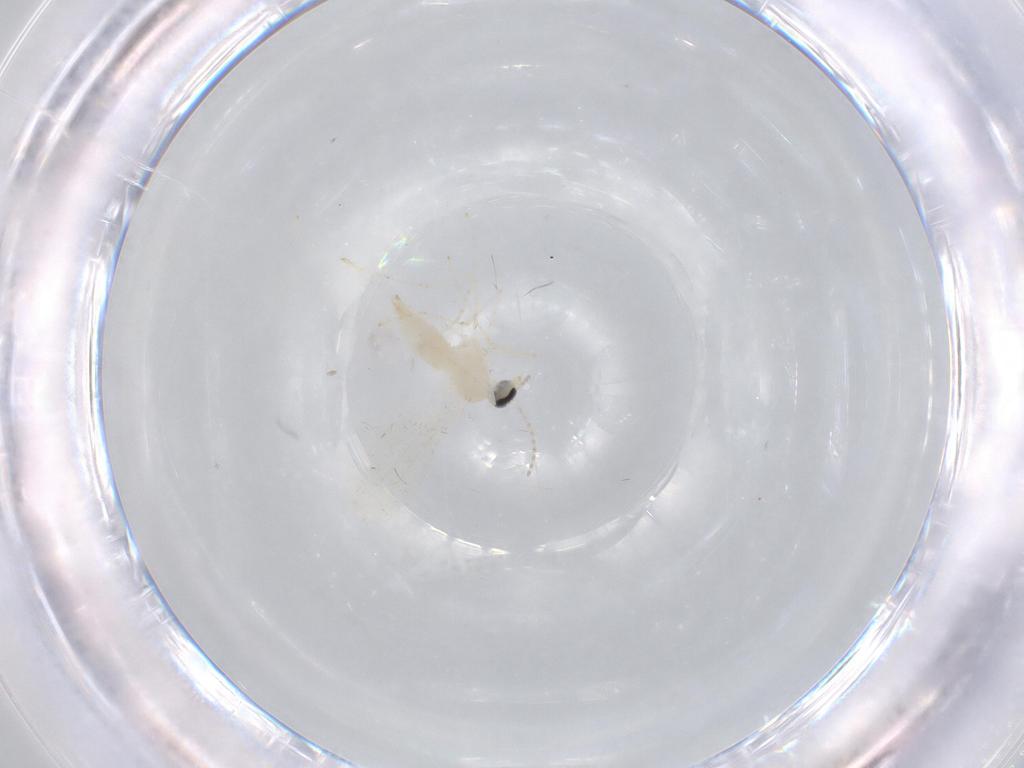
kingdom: Animalia
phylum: Arthropoda
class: Insecta
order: Diptera
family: Cecidomyiidae
